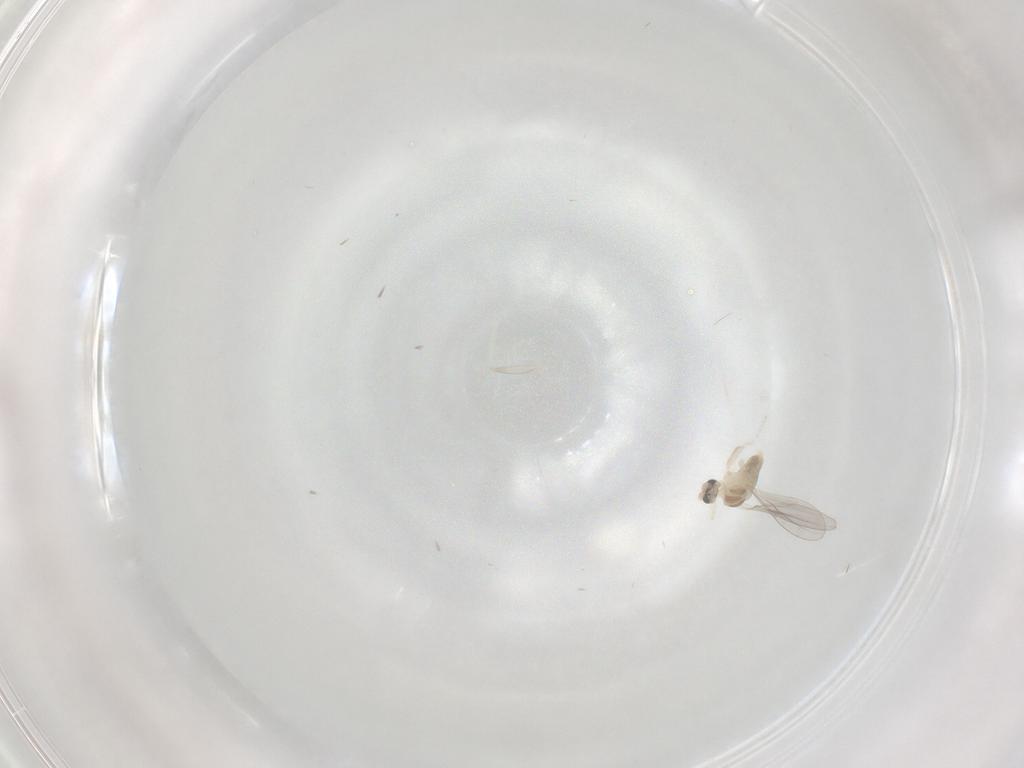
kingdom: Animalia
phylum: Arthropoda
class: Insecta
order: Diptera
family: Cecidomyiidae
